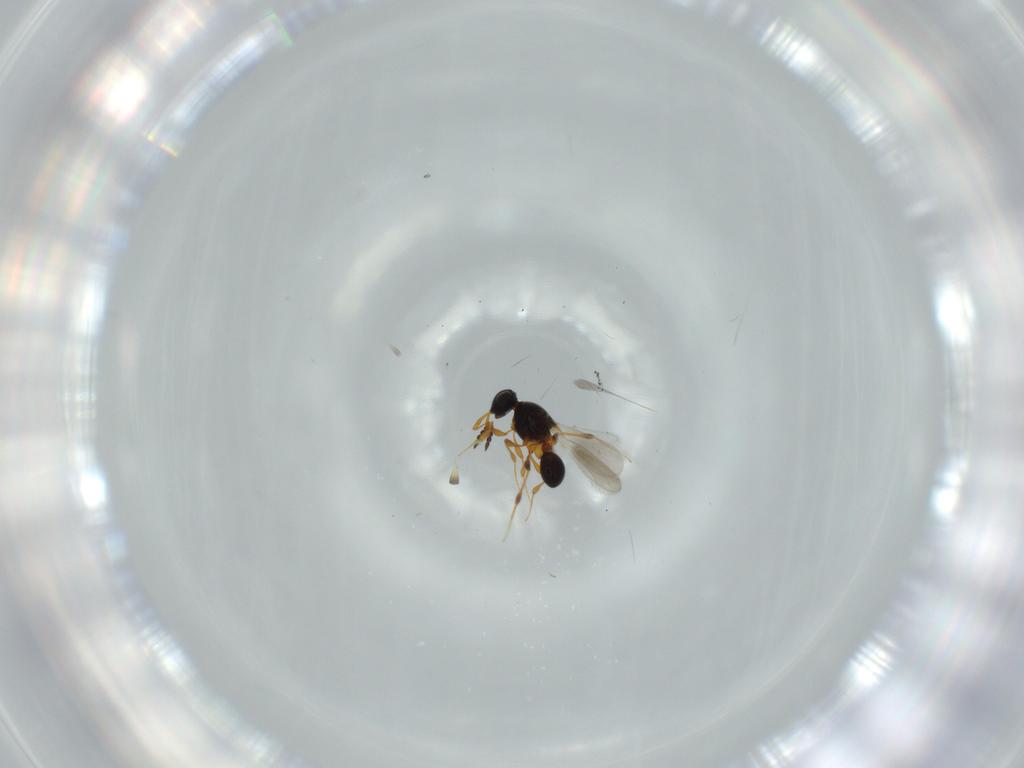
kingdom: Animalia
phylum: Arthropoda
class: Insecta
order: Hymenoptera
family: Platygastridae
